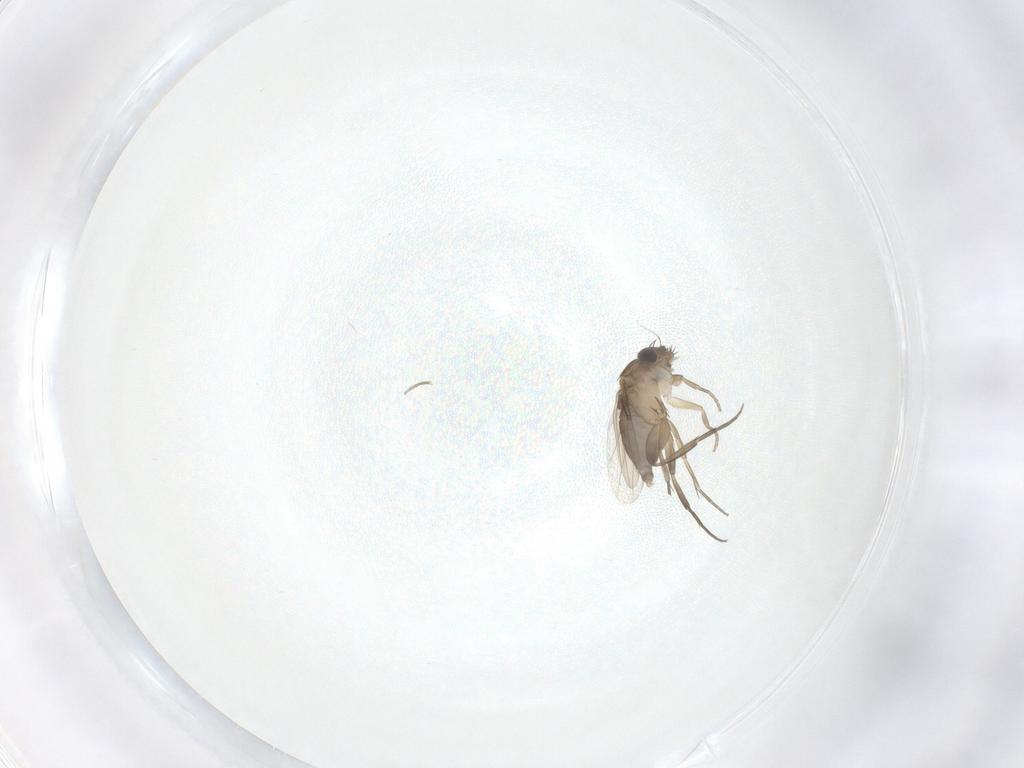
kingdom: Animalia
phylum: Arthropoda
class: Insecta
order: Diptera
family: Phoridae
